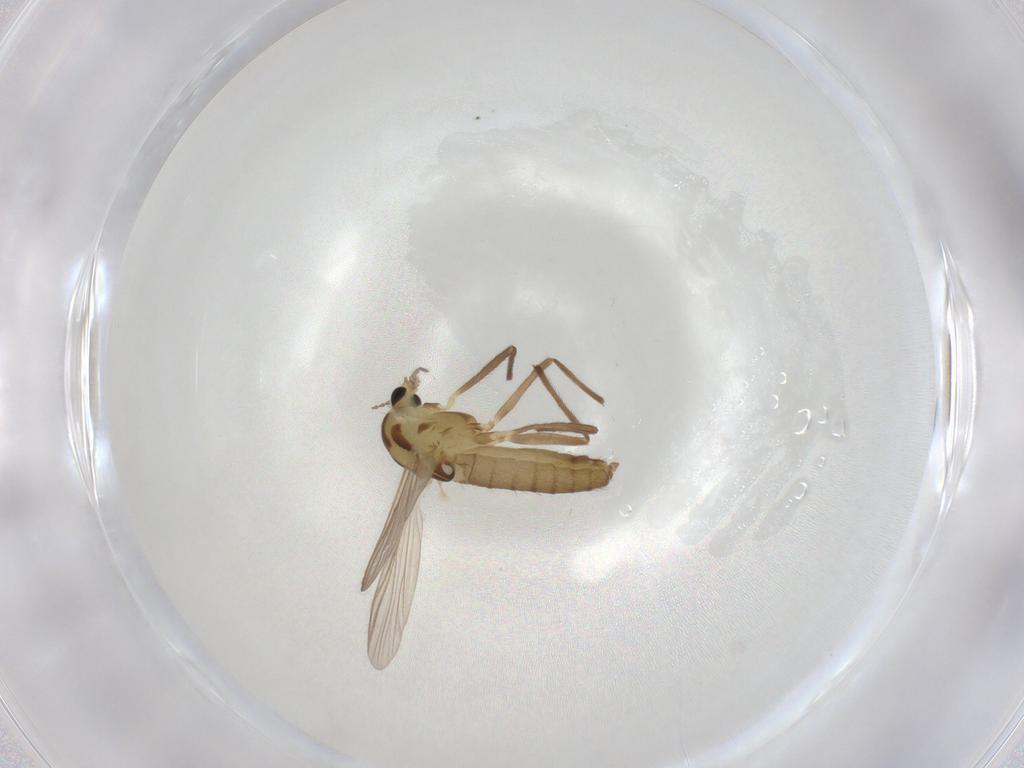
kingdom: Animalia
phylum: Arthropoda
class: Insecta
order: Diptera
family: Chironomidae
